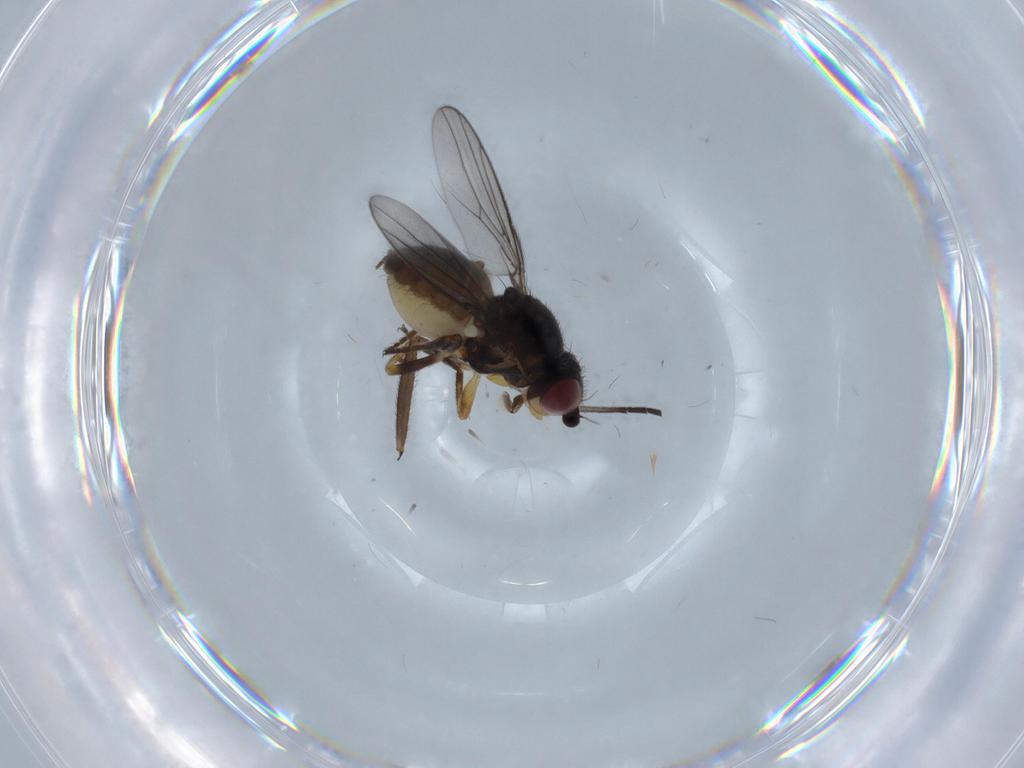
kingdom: Animalia
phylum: Arthropoda
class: Insecta
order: Diptera
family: Chloropidae
